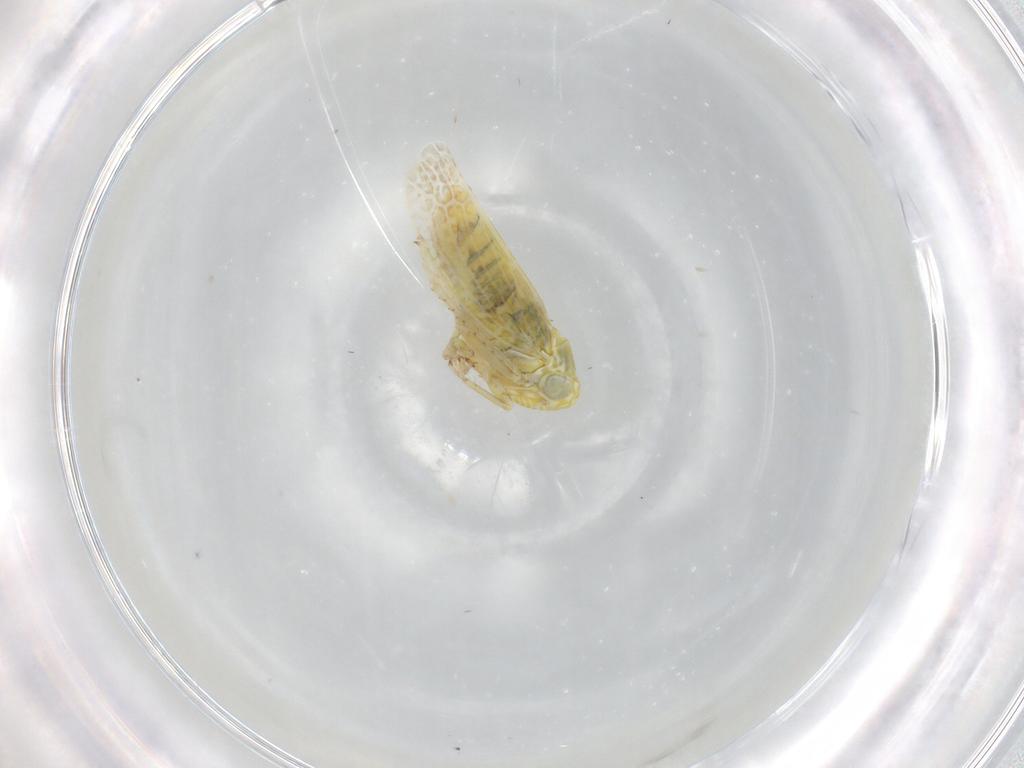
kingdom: Animalia
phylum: Arthropoda
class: Insecta
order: Hemiptera
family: Cicadellidae
